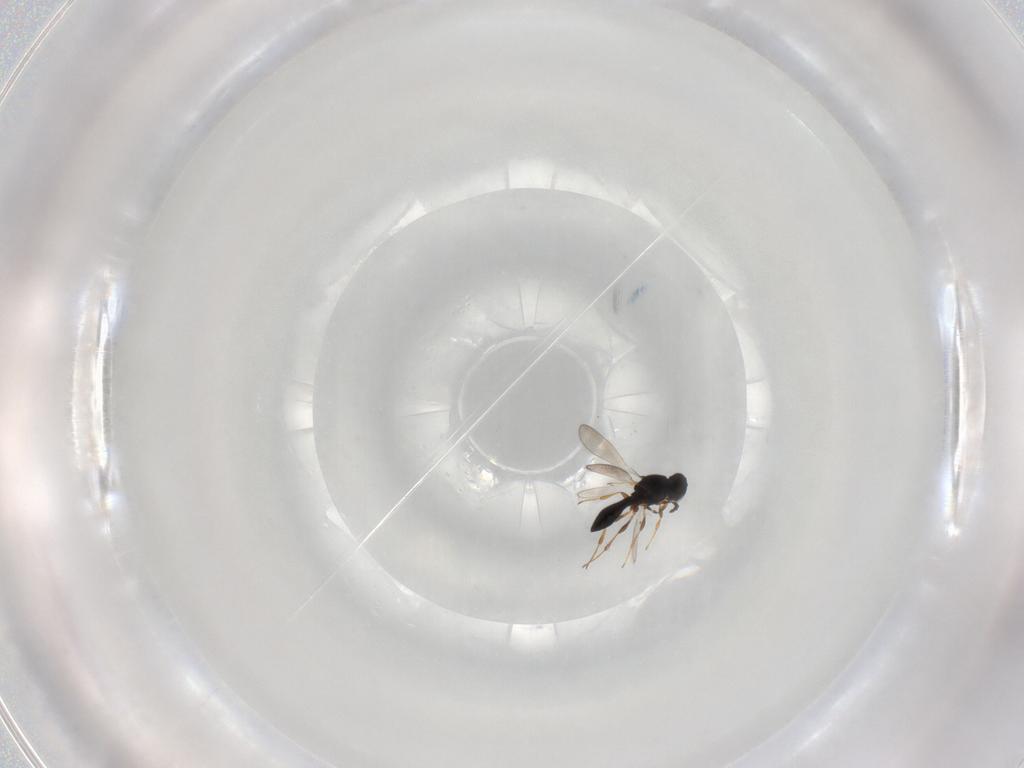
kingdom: Animalia
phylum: Arthropoda
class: Insecta
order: Hymenoptera
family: Platygastridae
